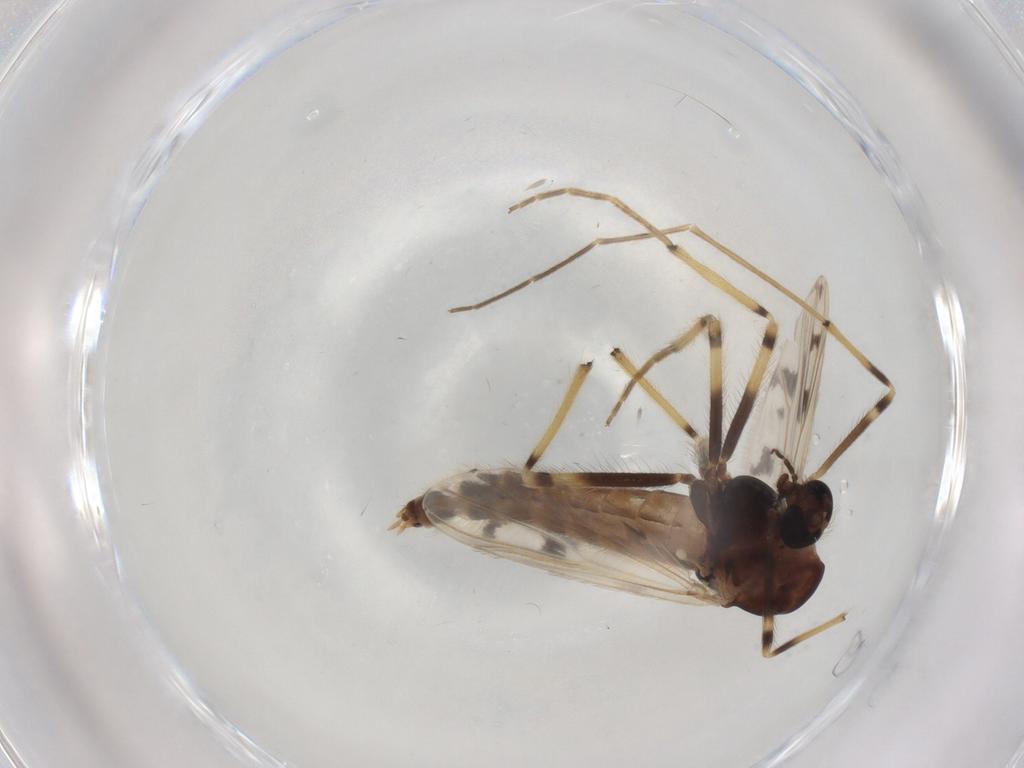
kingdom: Animalia
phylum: Arthropoda
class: Insecta
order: Diptera
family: Chironomidae
